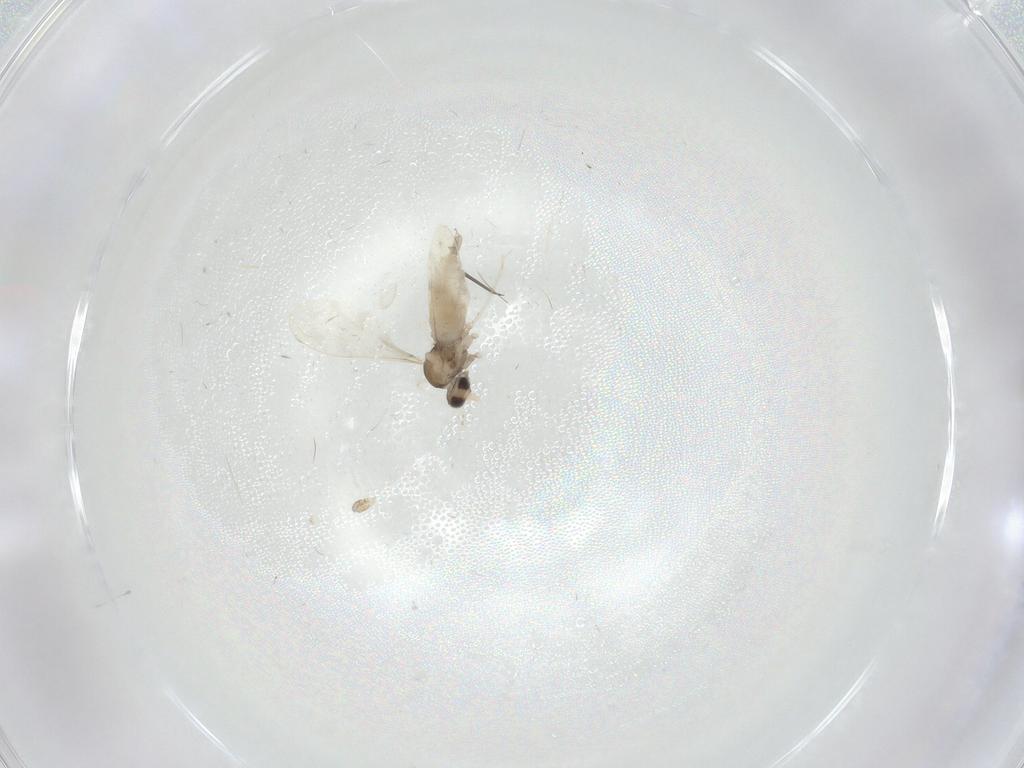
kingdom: Animalia
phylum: Arthropoda
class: Insecta
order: Diptera
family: Cecidomyiidae
